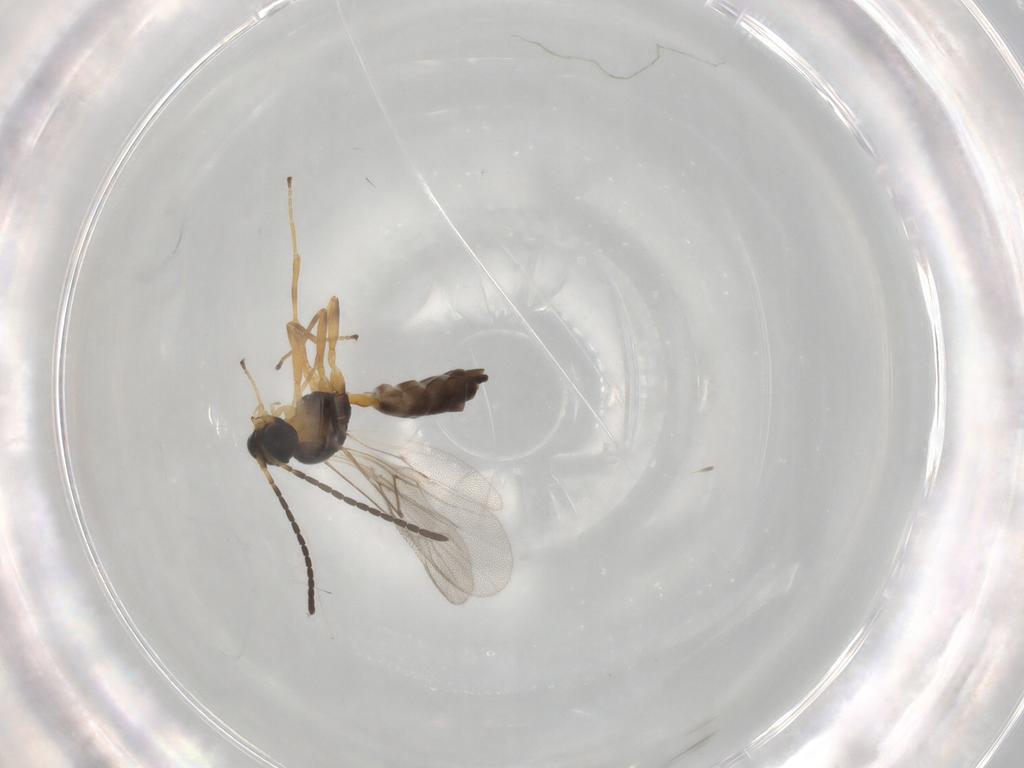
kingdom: Animalia
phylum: Arthropoda
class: Insecta
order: Hymenoptera
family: Braconidae
